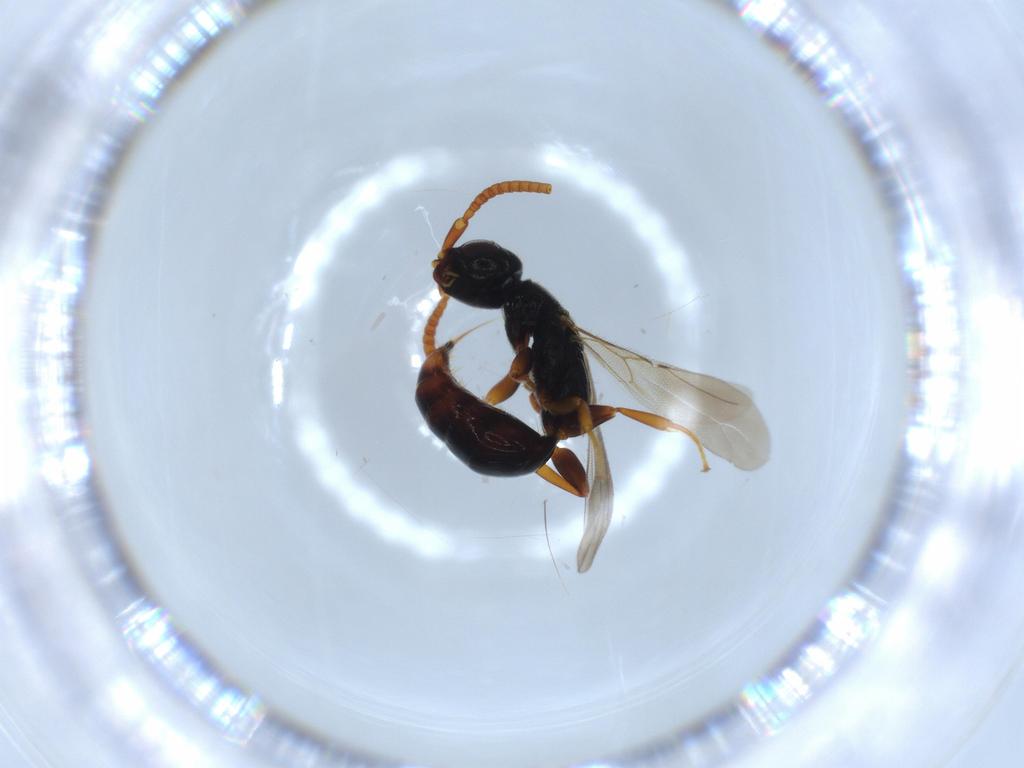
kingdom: Animalia
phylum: Arthropoda
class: Insecta
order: Hymenoptera
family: Bethylidae
